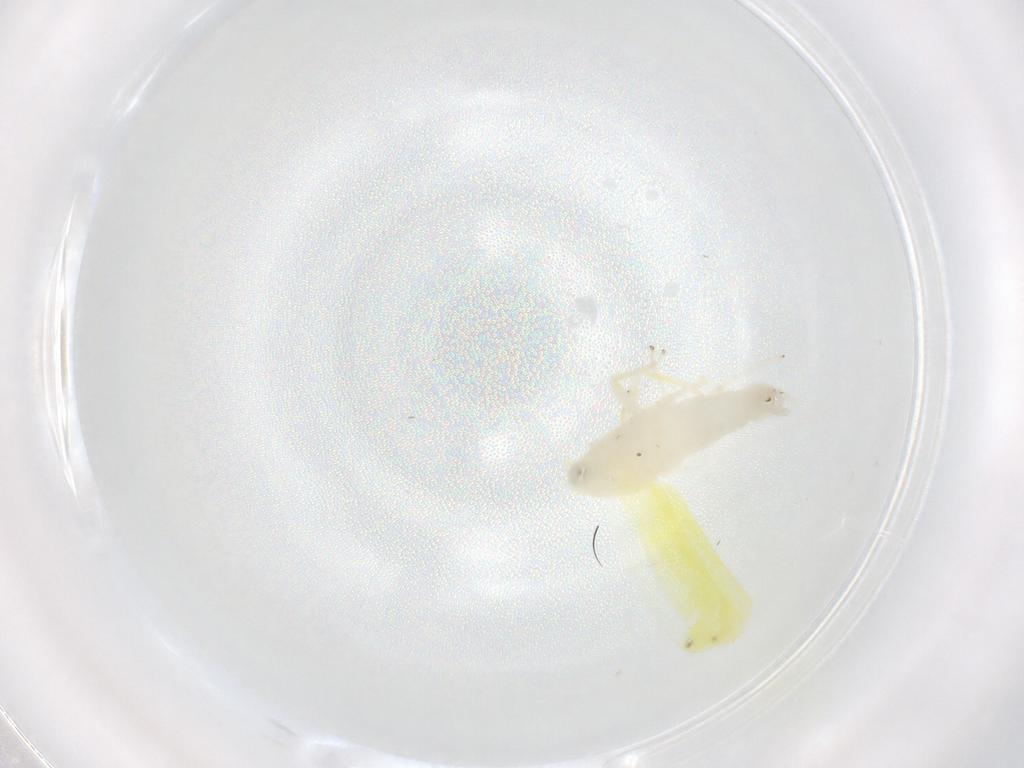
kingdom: Animalia
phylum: Arthropoda
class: Insecta
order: Hemiptera
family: Cicadellidae
